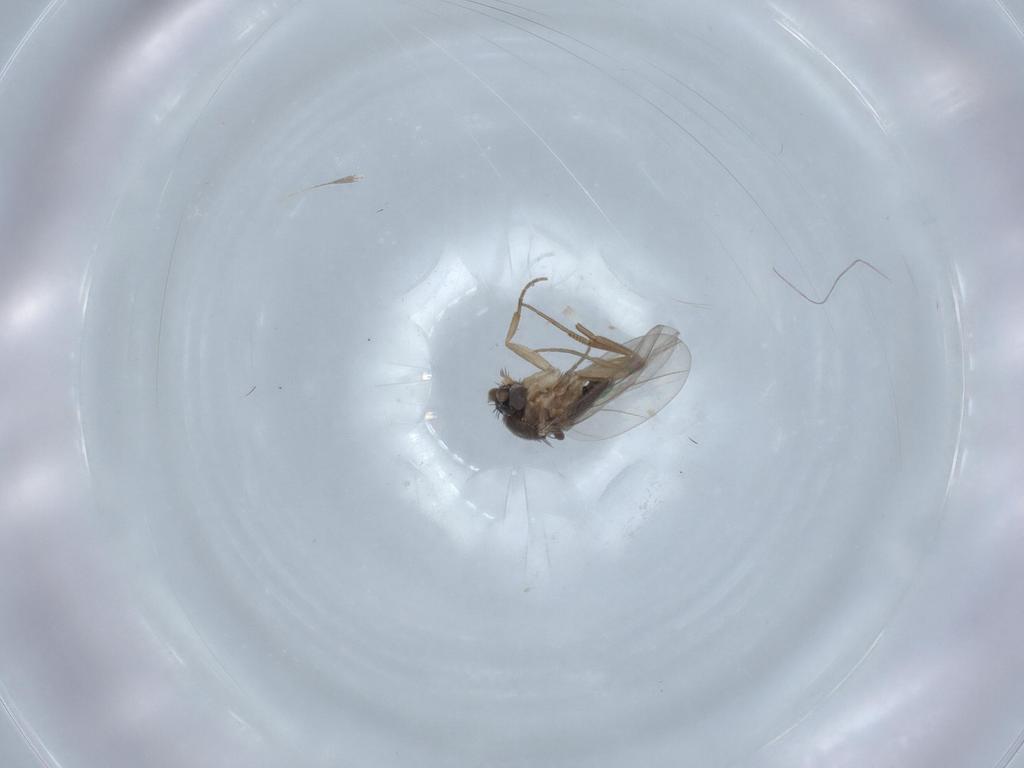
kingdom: Animalia
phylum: Arthropoda
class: Insecta
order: Diptera
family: Phoridae
